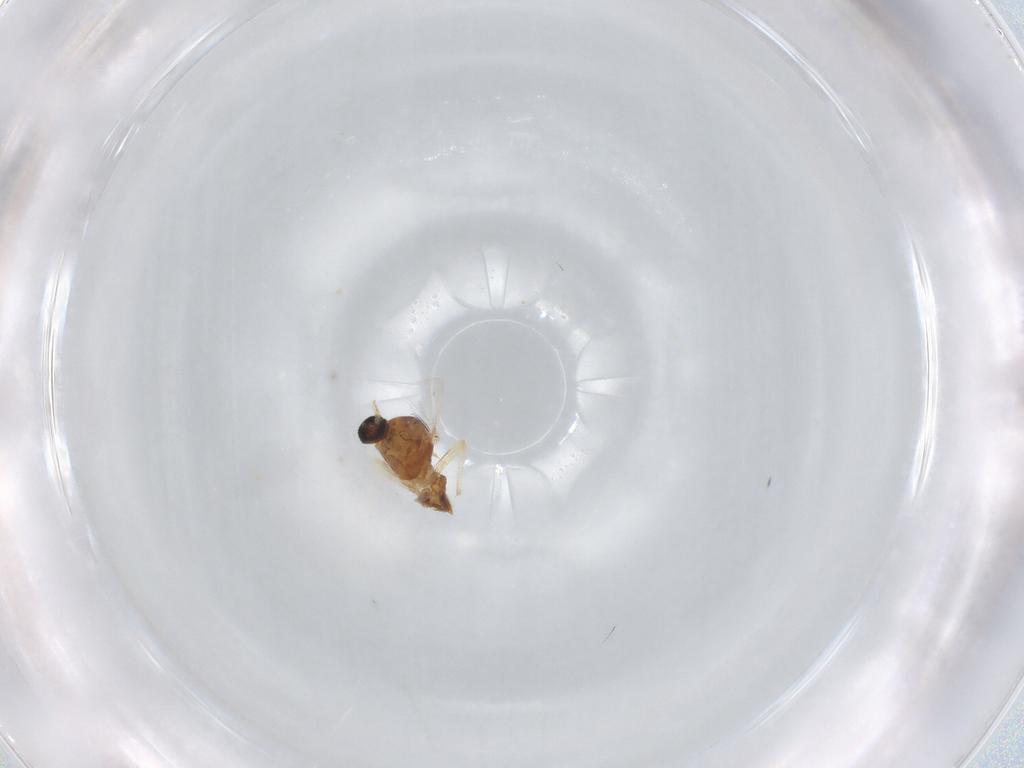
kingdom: Animalia
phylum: Arthropoda
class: Insecta
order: Diptera
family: Ceratopogonidae
